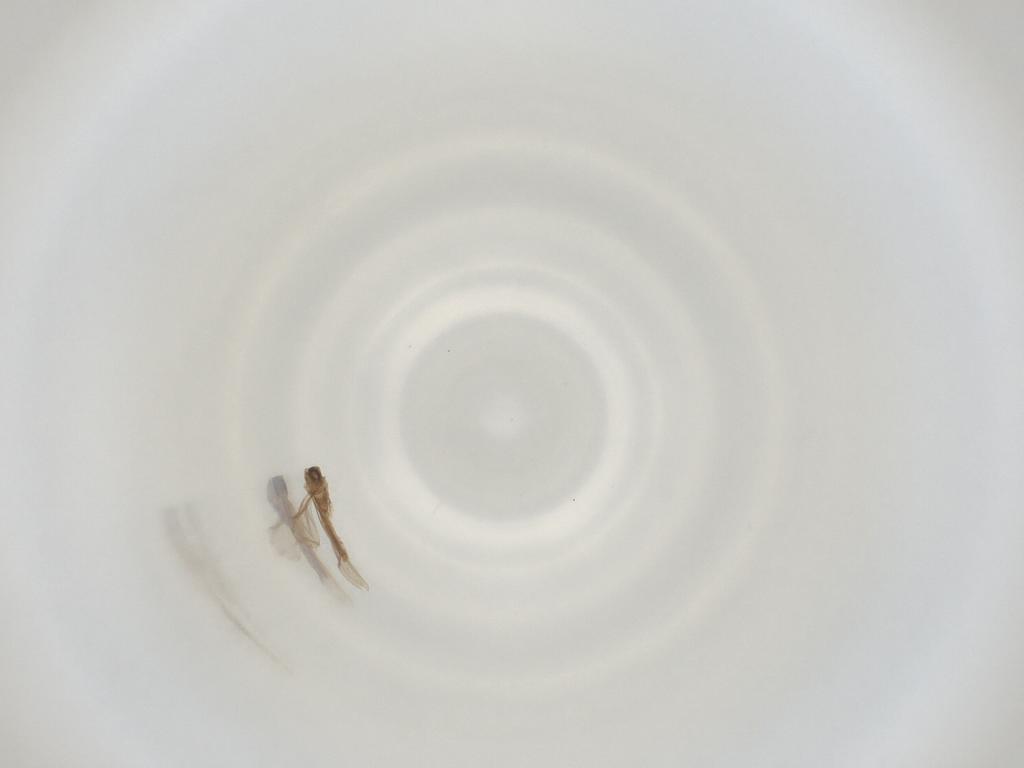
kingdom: Animalia
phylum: Arthropoda
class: Insecta
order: Diptera
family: Cecidomyiidae
